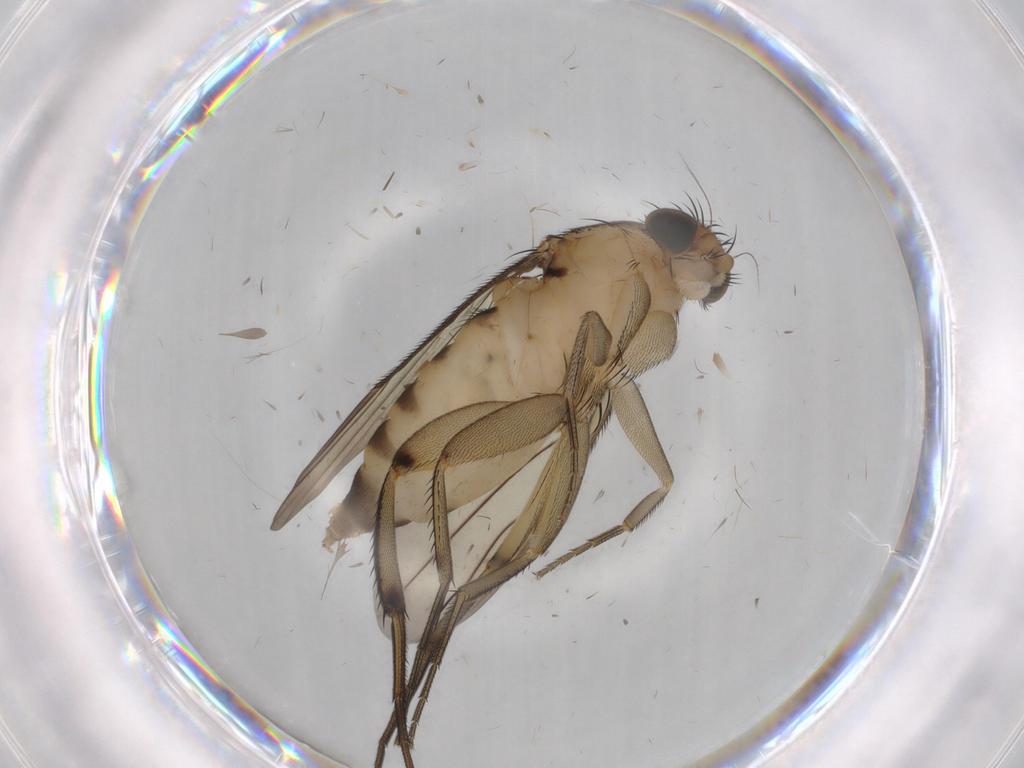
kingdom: Animalia
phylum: Arthropoda
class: Insecta
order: Diptera
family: Phoridae
